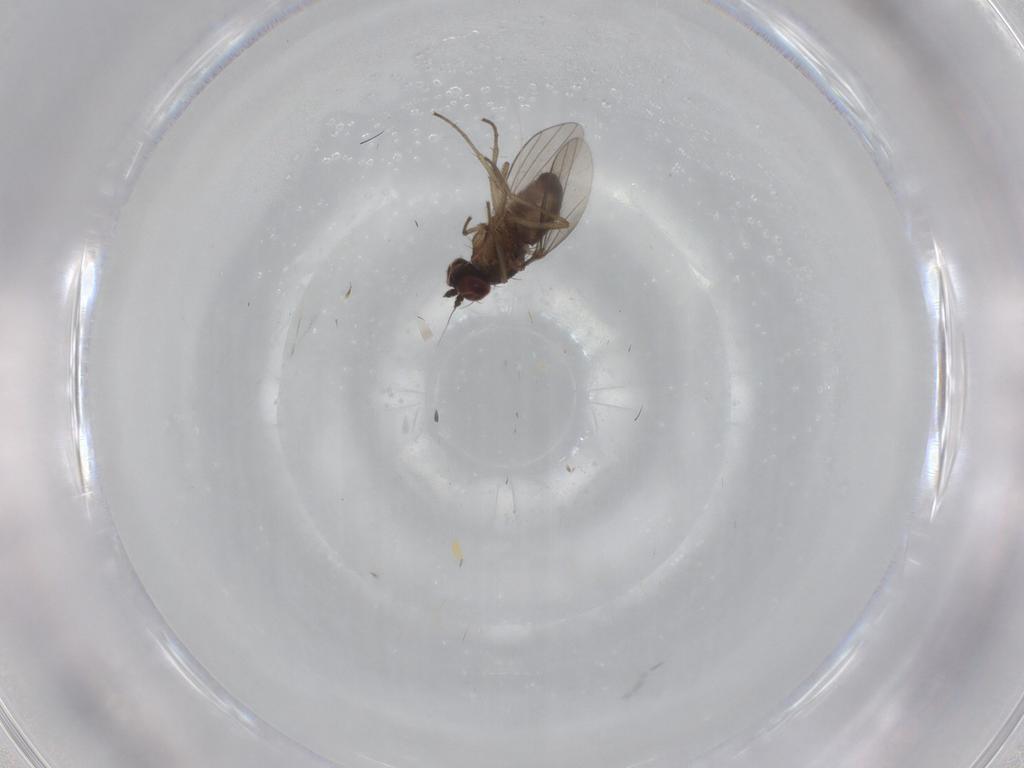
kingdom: Animalia
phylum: Arthropoda
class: Insecta
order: Diptera
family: Dolichopodidae
